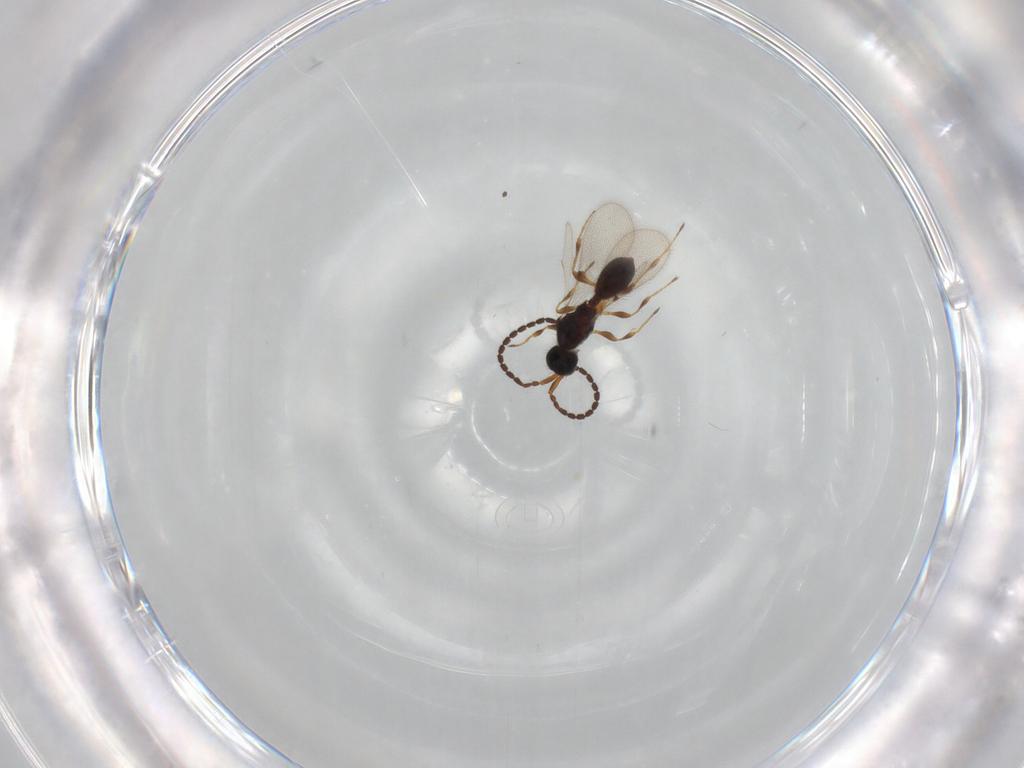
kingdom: Animalia
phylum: Arthropoda
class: Insecta
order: Hymenoptera
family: Diapriidae
